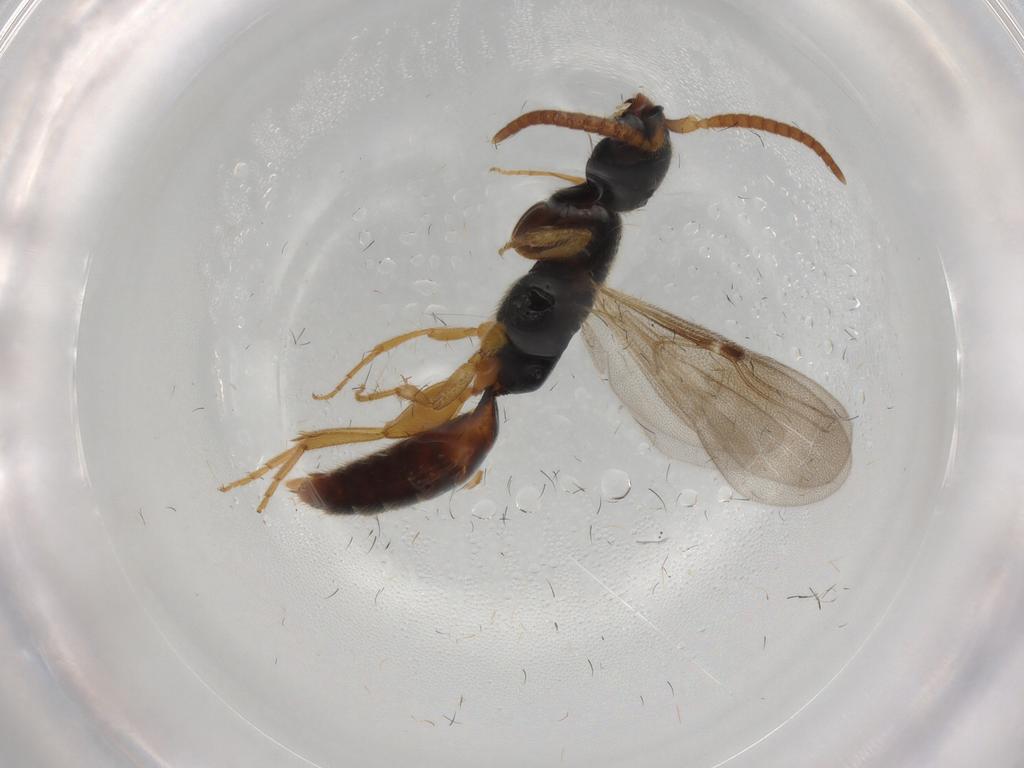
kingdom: Animalia
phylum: Arthropoda
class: Insecta
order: Hymenoptera
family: Bethylidae
